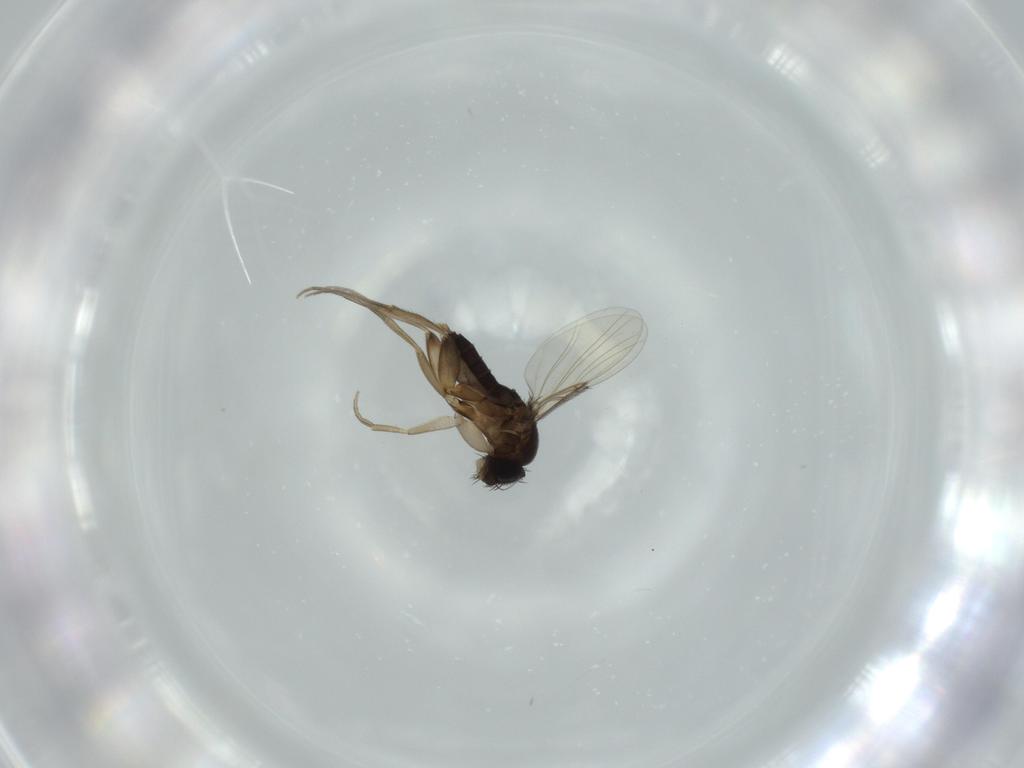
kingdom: Animalia
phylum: Arthropoda
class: Insecta
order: Diptera
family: Phoridae
